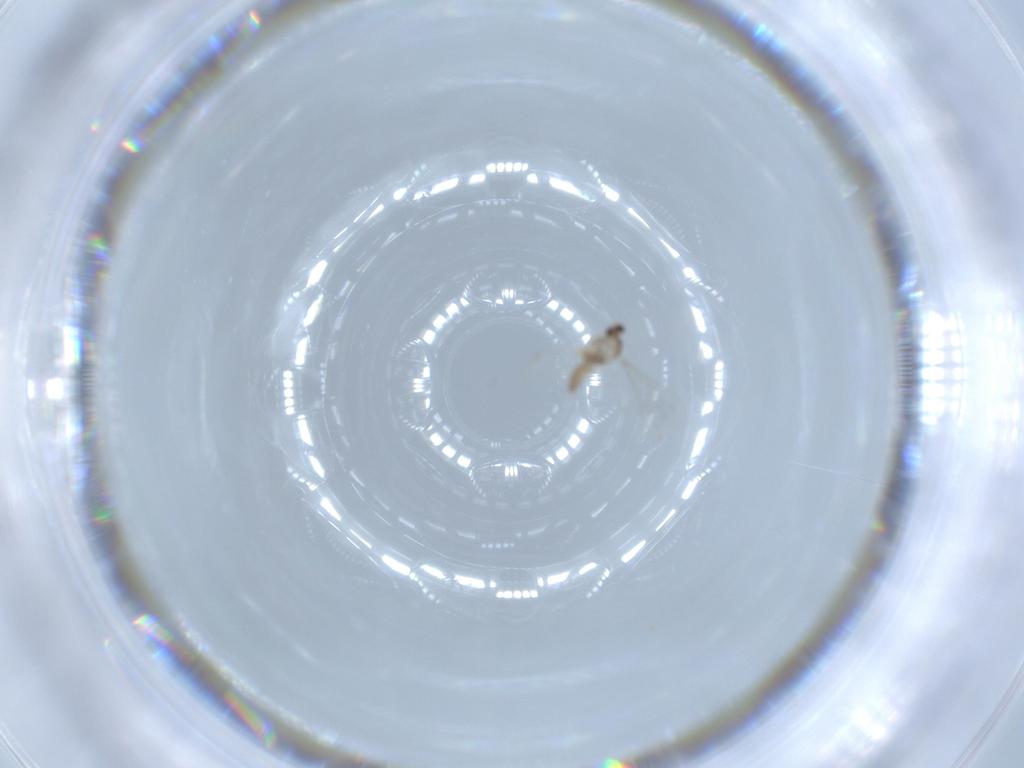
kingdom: Animalia
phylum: Arthropoda
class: Insecta
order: Diptera
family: Cecidomyiidae
